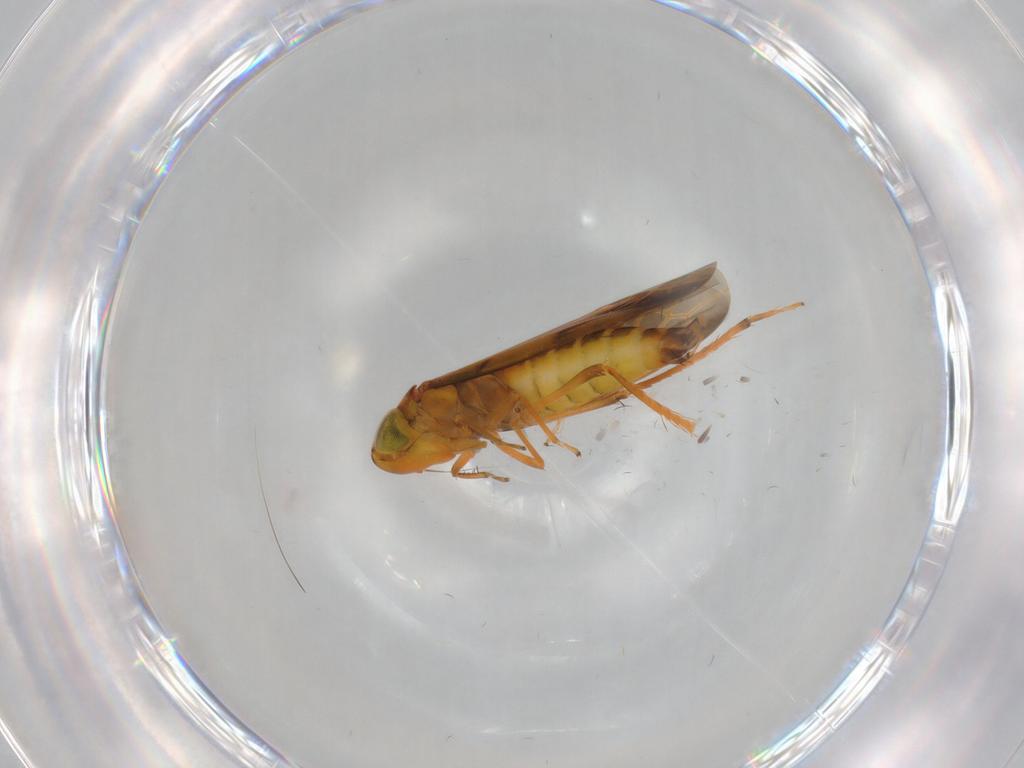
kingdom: Animalia
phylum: Arthropoda
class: Insecta
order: Hemiptera
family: Cicadellidae
